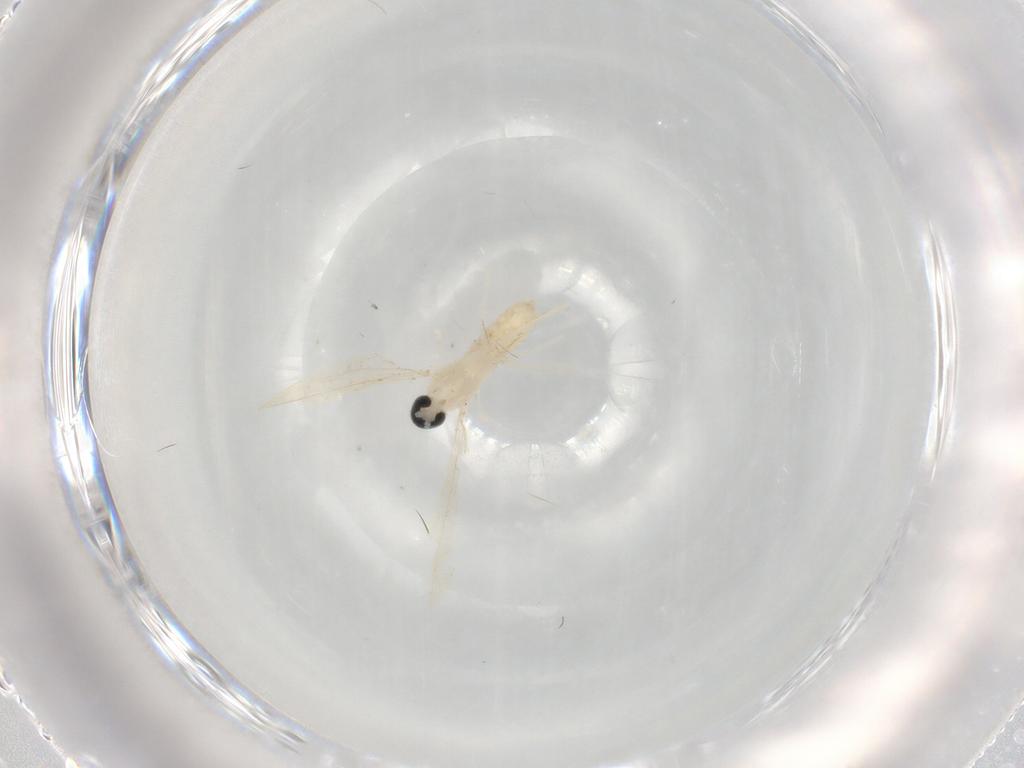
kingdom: Animalia
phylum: Arthropoda
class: Insecta
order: Diptera
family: Cecidomyiidae
